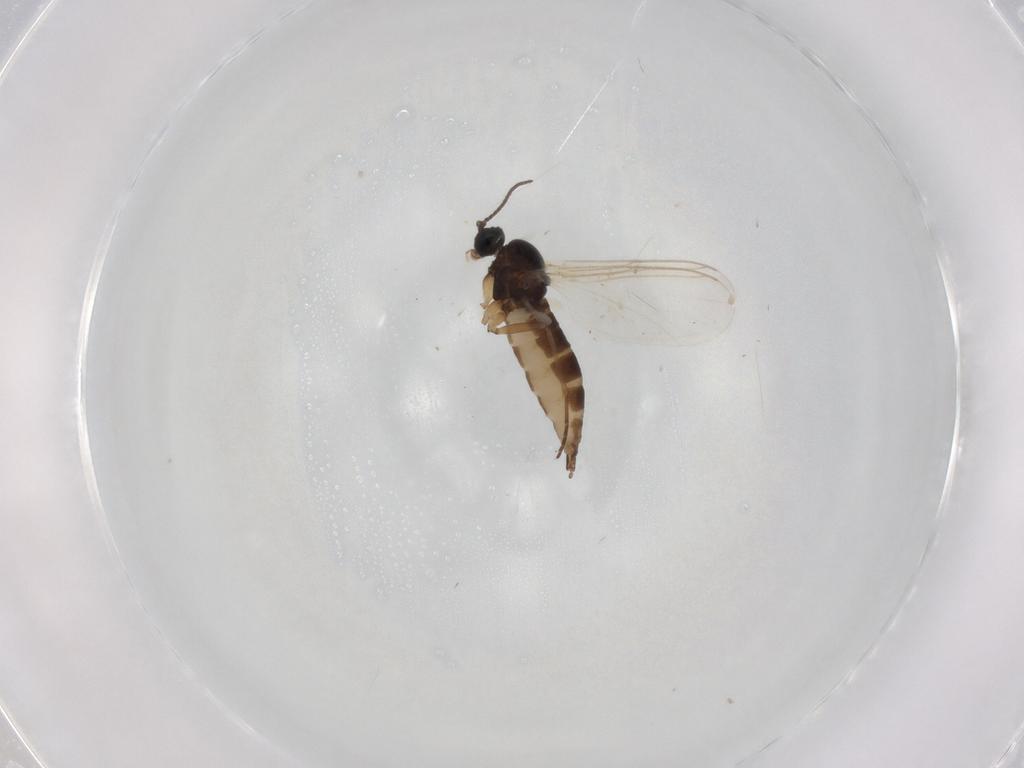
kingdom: Animalia
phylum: Arthropoda
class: Insecta
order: Diptera
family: Sciaridae
